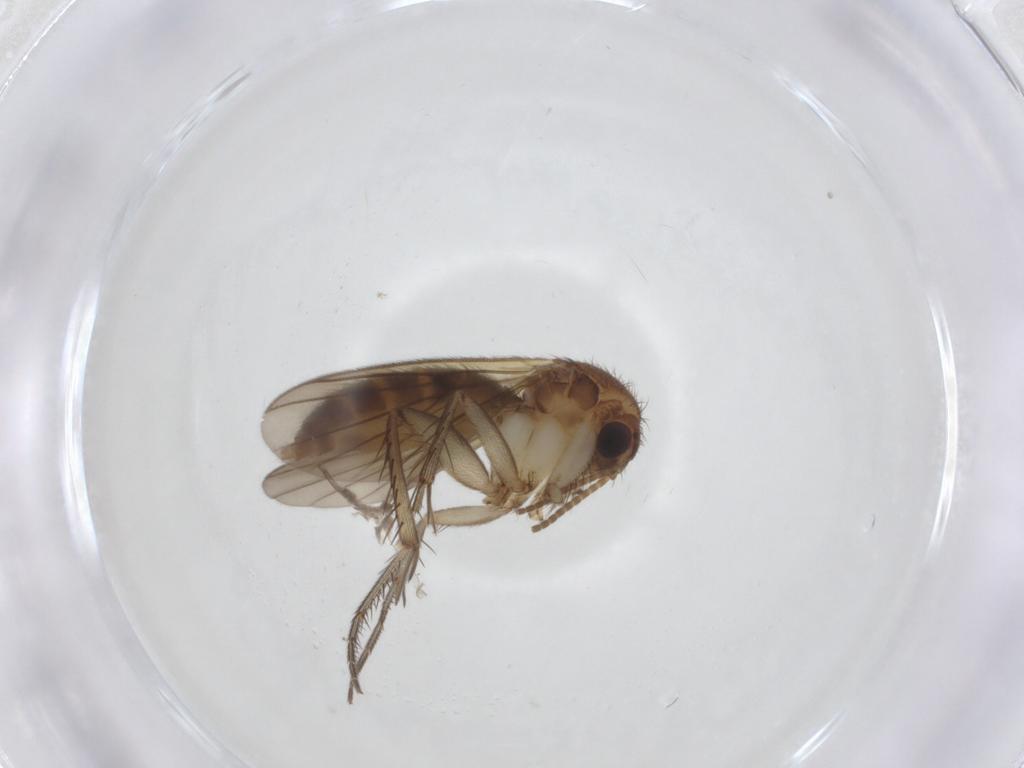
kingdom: Animalia
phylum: Arthropoda
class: Insecta
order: Diptera
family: Mycetophilidae
